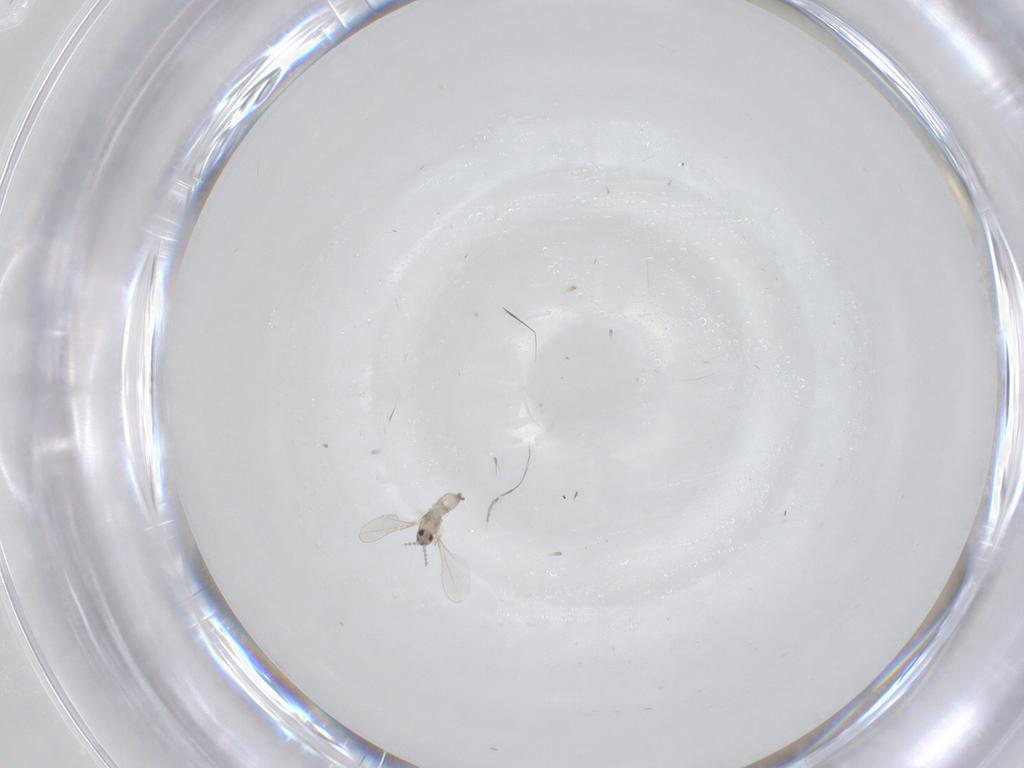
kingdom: Animalia
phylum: Arthropoda
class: Insecta
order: Diptera
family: Cecidomyiidae
